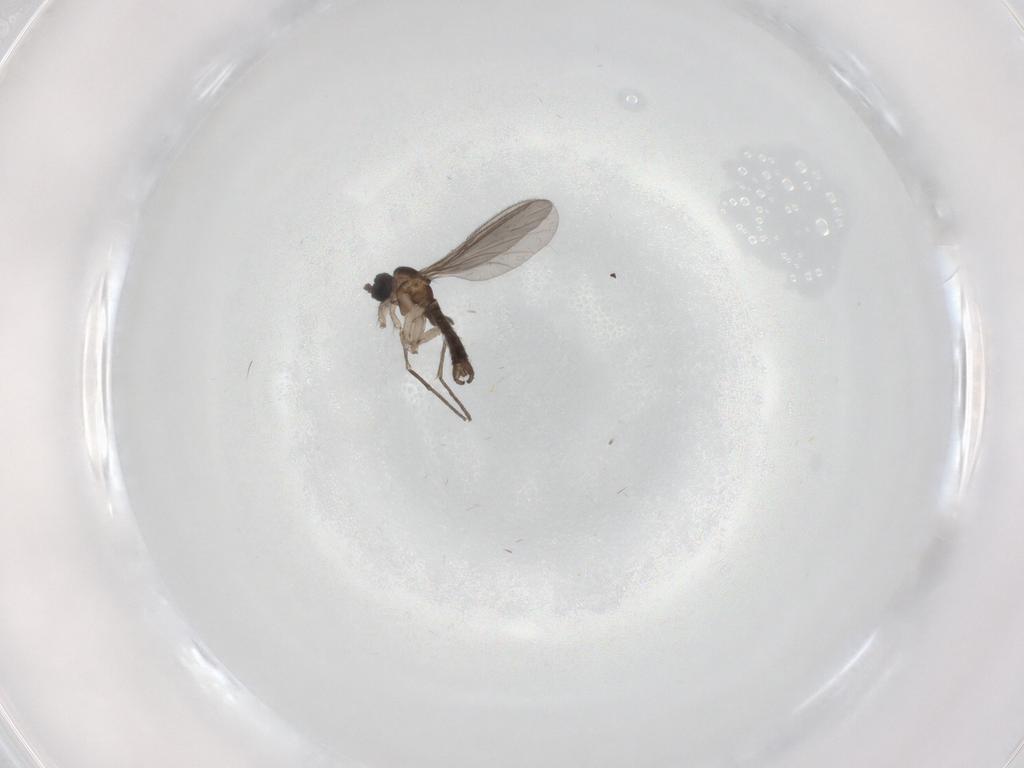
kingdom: Animalia
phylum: Arthropoda
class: Insecta
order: Diptera
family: Sciaridae
